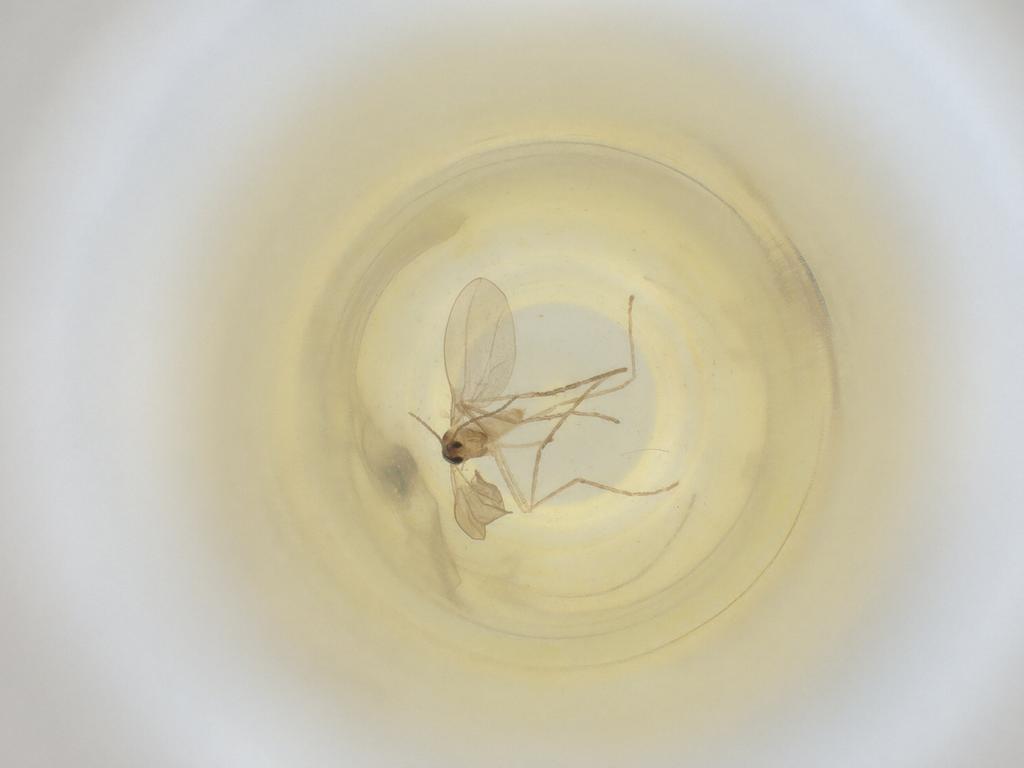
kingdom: Animalia
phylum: Arthropoda
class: Insecta
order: Diptera
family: Cecidomyiidae
